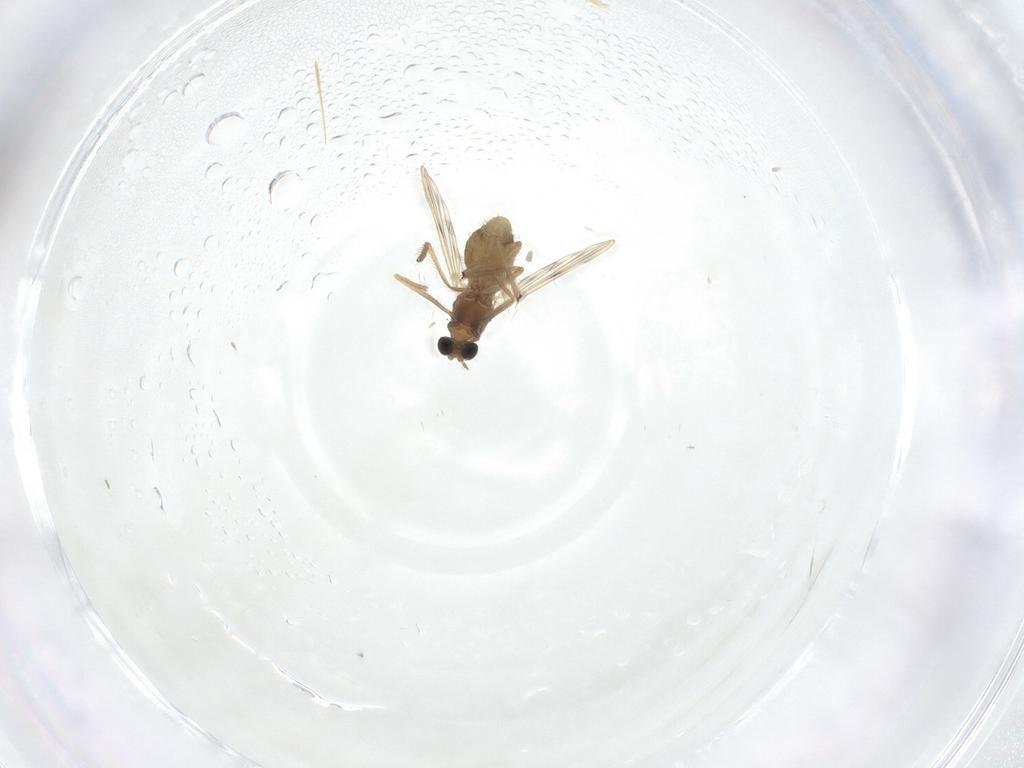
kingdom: Animalia
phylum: Arthropoda
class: Insecta
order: Diptera
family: Chironomidae
